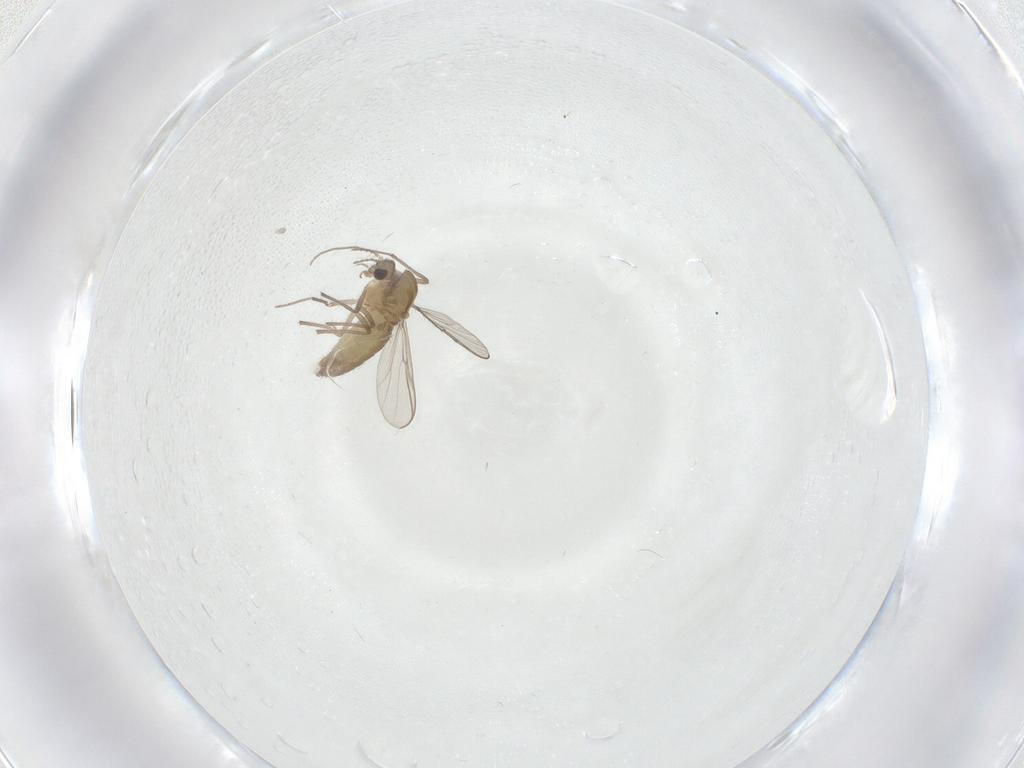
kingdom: Animalia
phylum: Arthropoda
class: Insecta
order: Diptera
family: Chironomidae
